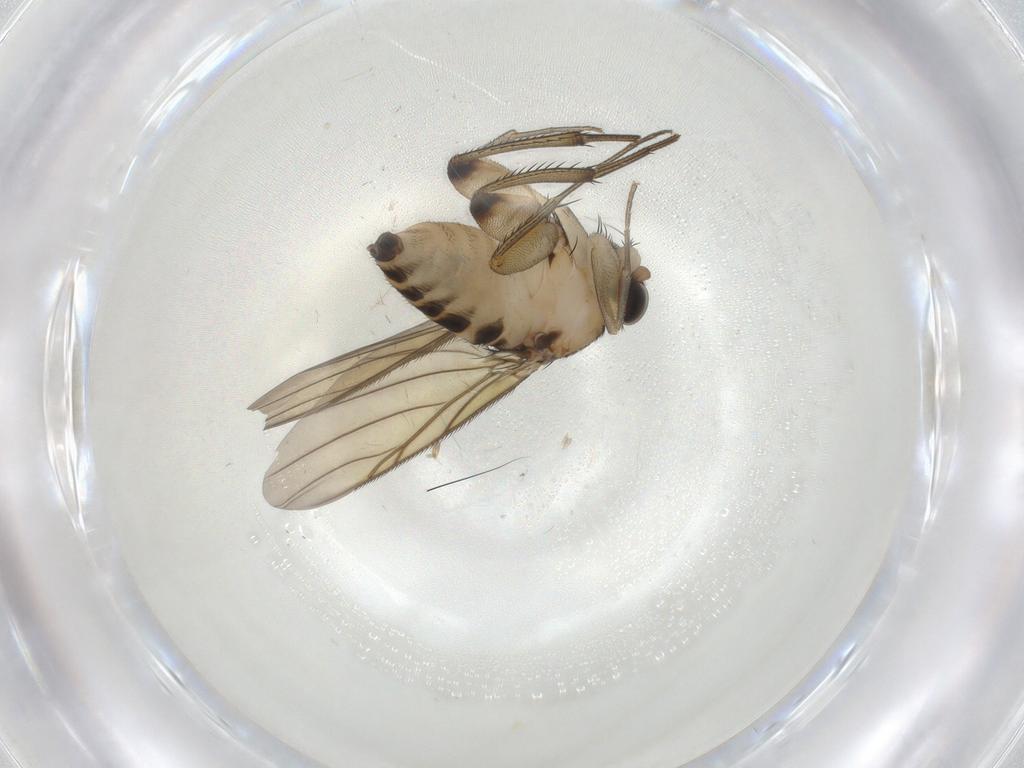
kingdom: Animalia
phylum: Arthropoda
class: Insecta
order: Diptera
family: Phoridae
